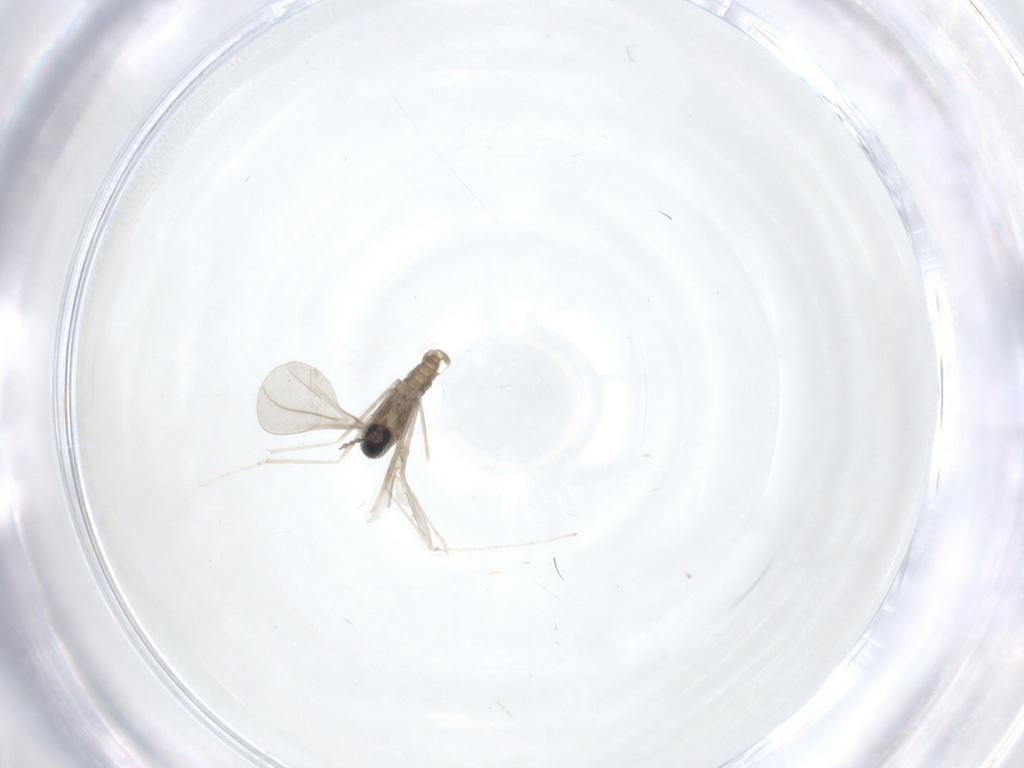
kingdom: Animalia
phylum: Arthropoda
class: Insecta
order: Diptera
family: Cecidomyiidae
